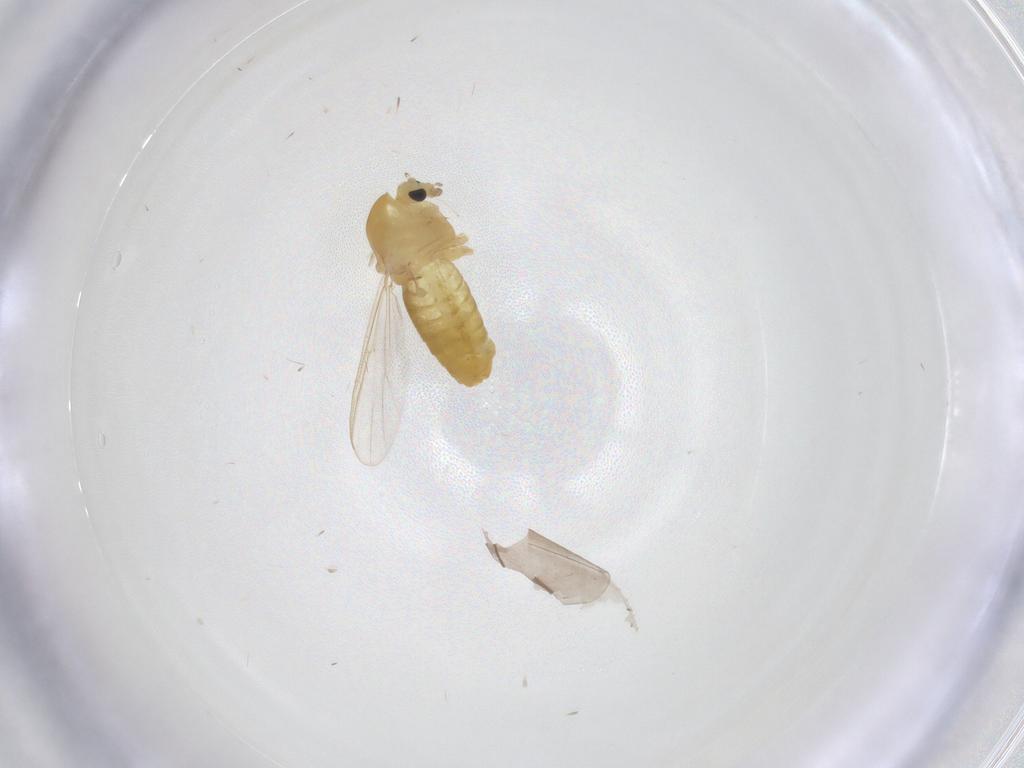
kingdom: Animalia
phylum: Arthropoda
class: Insecta
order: Diptera
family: Chironomidae
